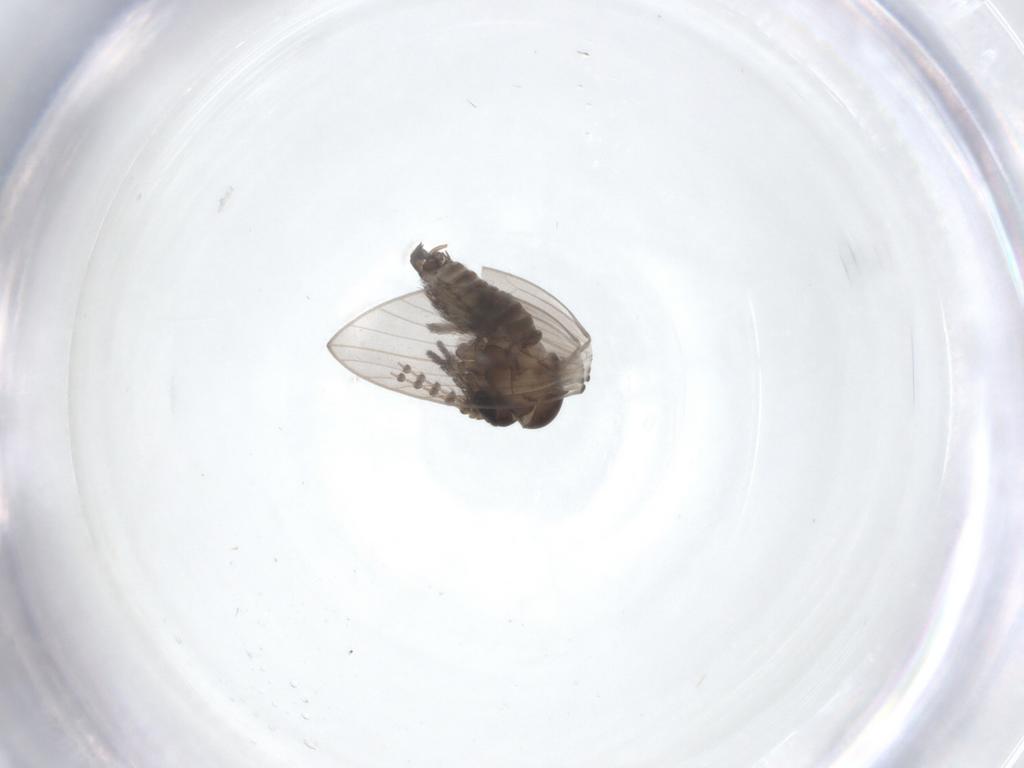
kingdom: Animalia
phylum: Arthropoda
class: Insecta
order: Diptera
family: Psychodidae
